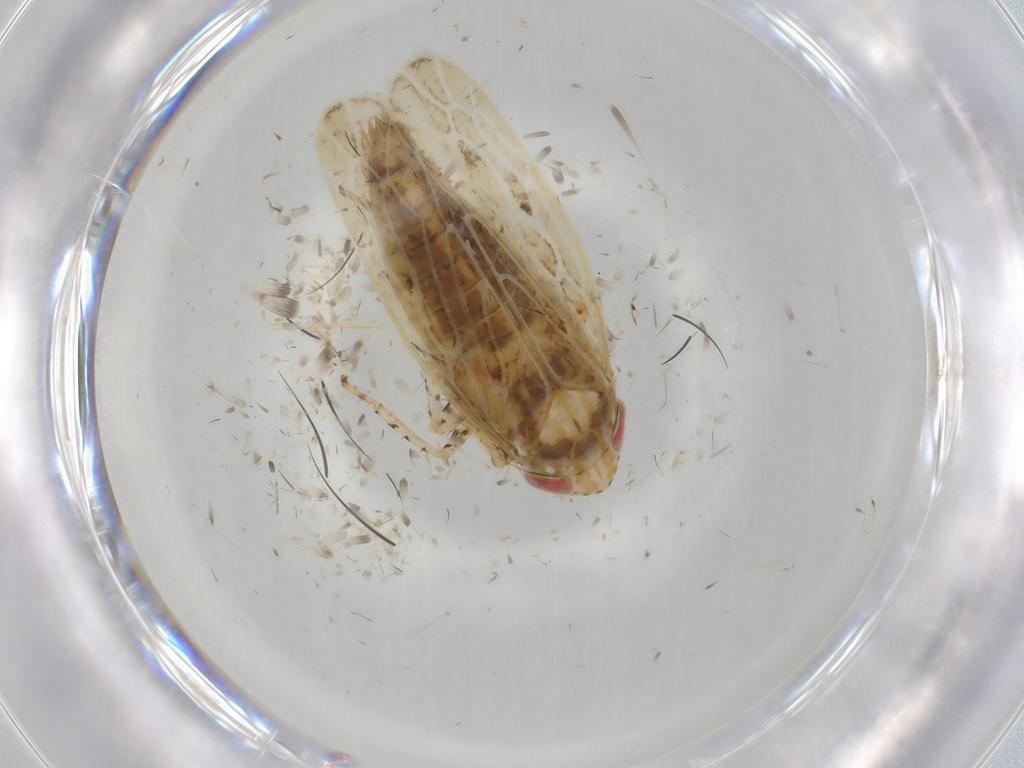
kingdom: Animalia
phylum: Arthropoda
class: Insecta
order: Hemiptera
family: Cicadellidae
